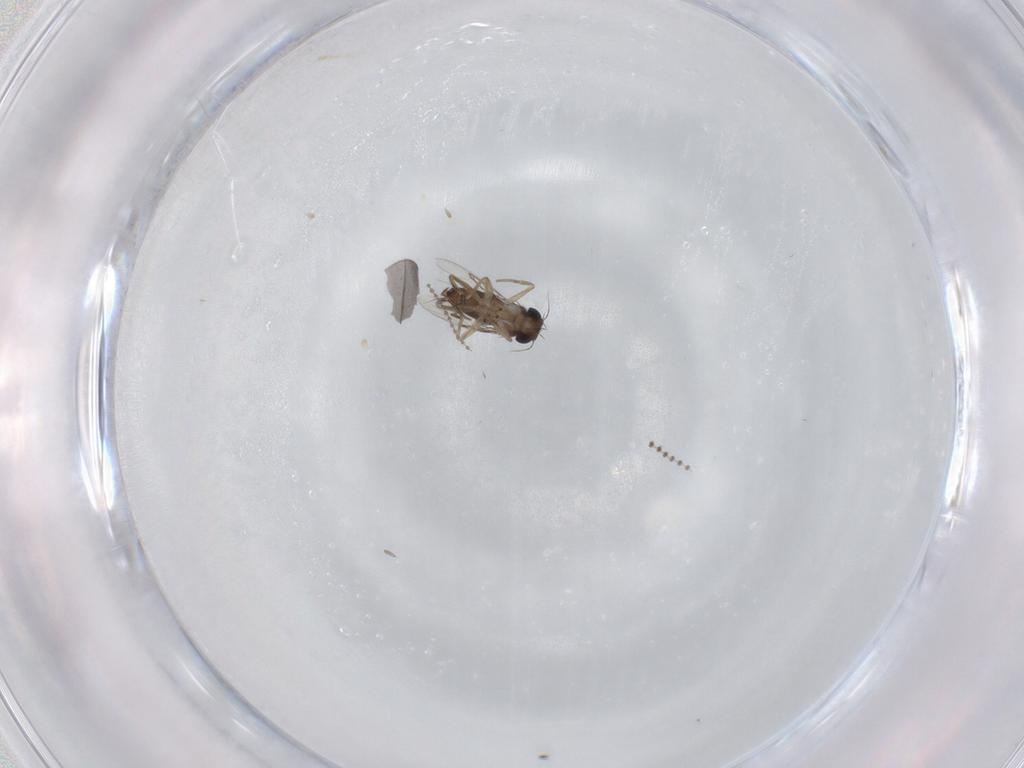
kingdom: Animalia
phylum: Arthropoda
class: Insecta
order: Diptera
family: Phoridae
